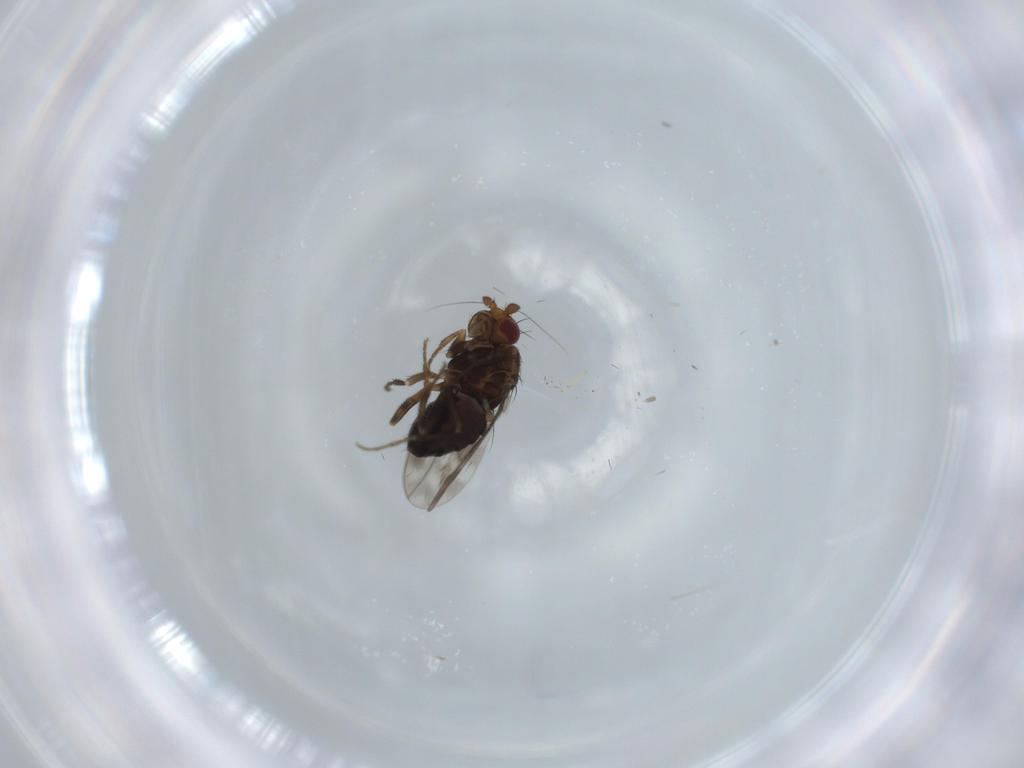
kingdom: Animalia
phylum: Arthropoda
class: Insecta
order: Diptera
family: Sphaeroceridae
